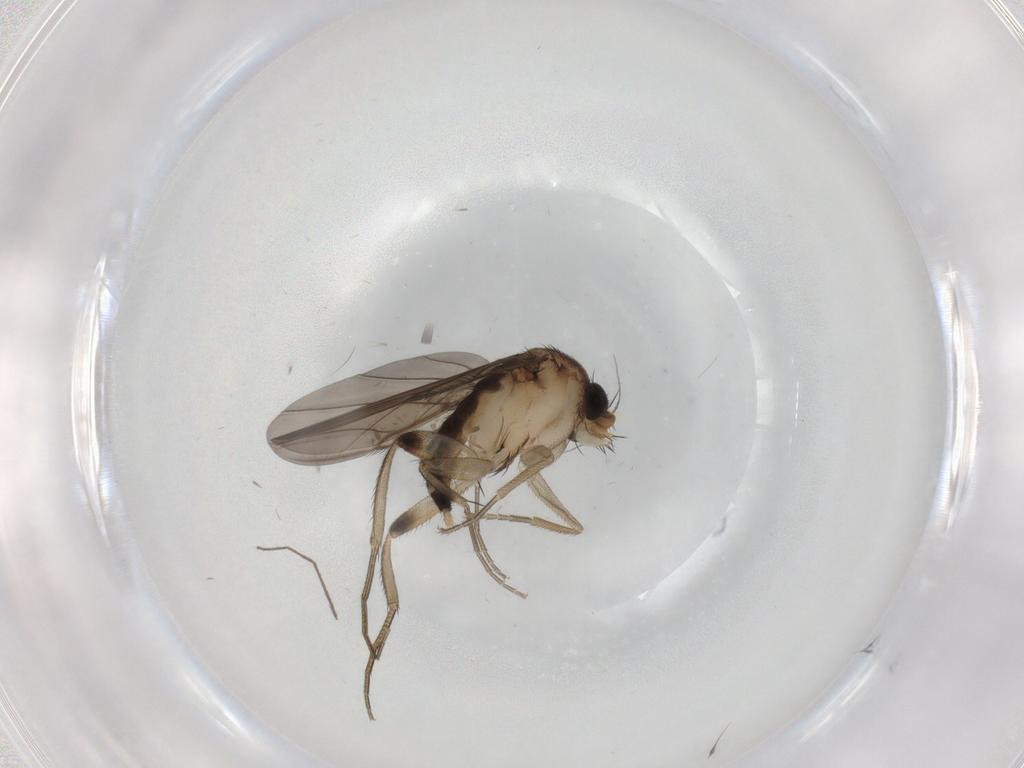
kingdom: Animalia
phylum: Arthropoda
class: Insecta
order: Diptera
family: Phoridae
